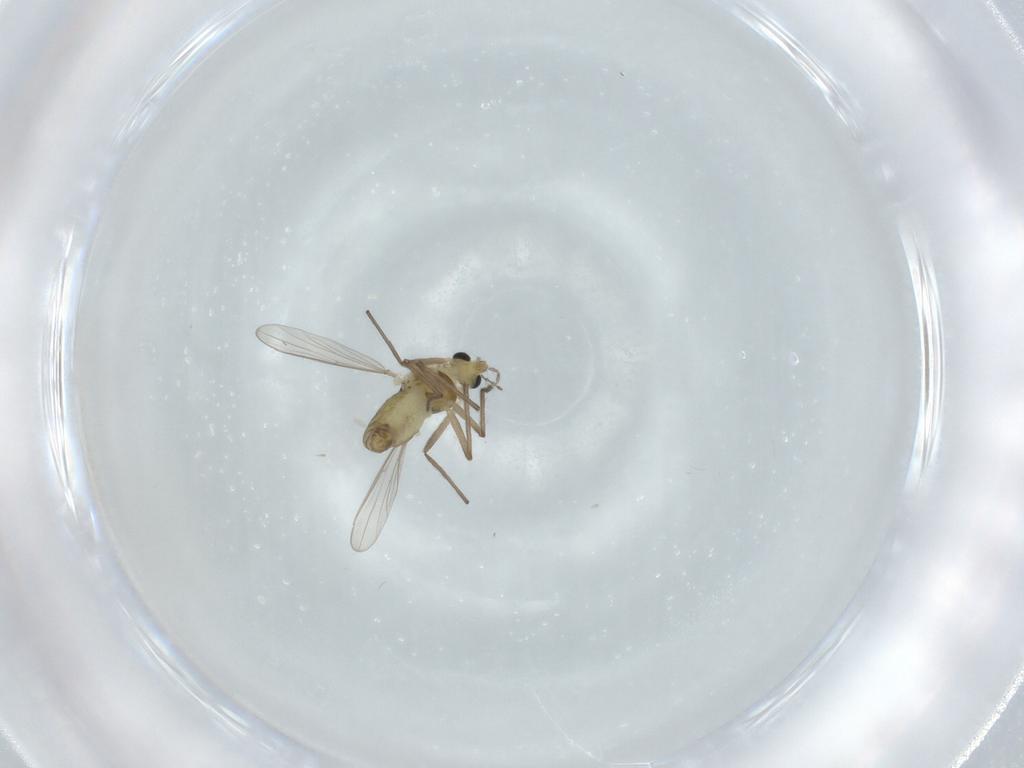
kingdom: Animalia
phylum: Arthropoda
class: Insecta
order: Diptera
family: Chironomidae
